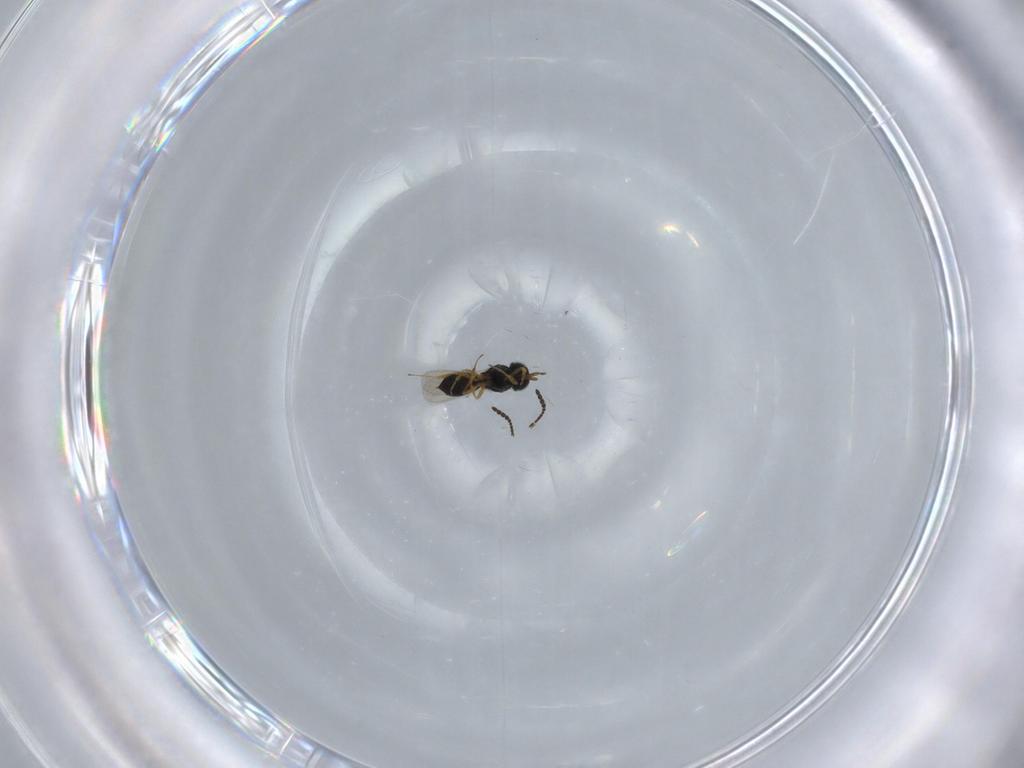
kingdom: Animalia
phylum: Arthropoda
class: Insecta
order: Hymenoptera
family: Scelionidae
